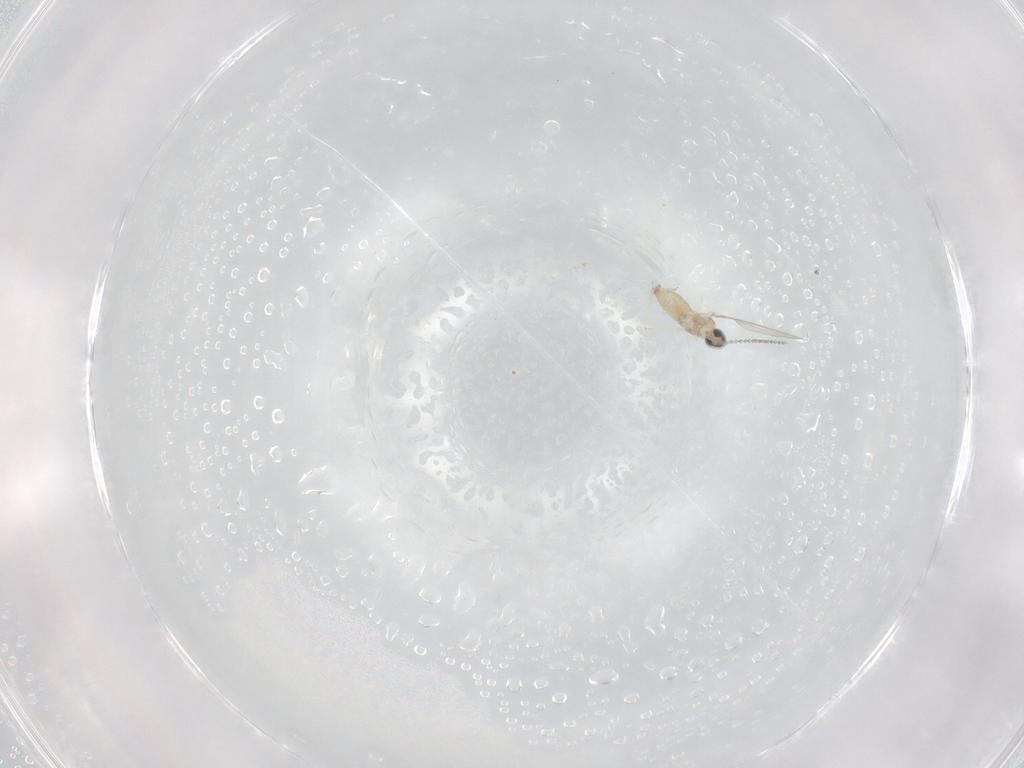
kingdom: Animalia
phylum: Arthropoda
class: Insecta
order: Diptera
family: Cecidomyiidae
